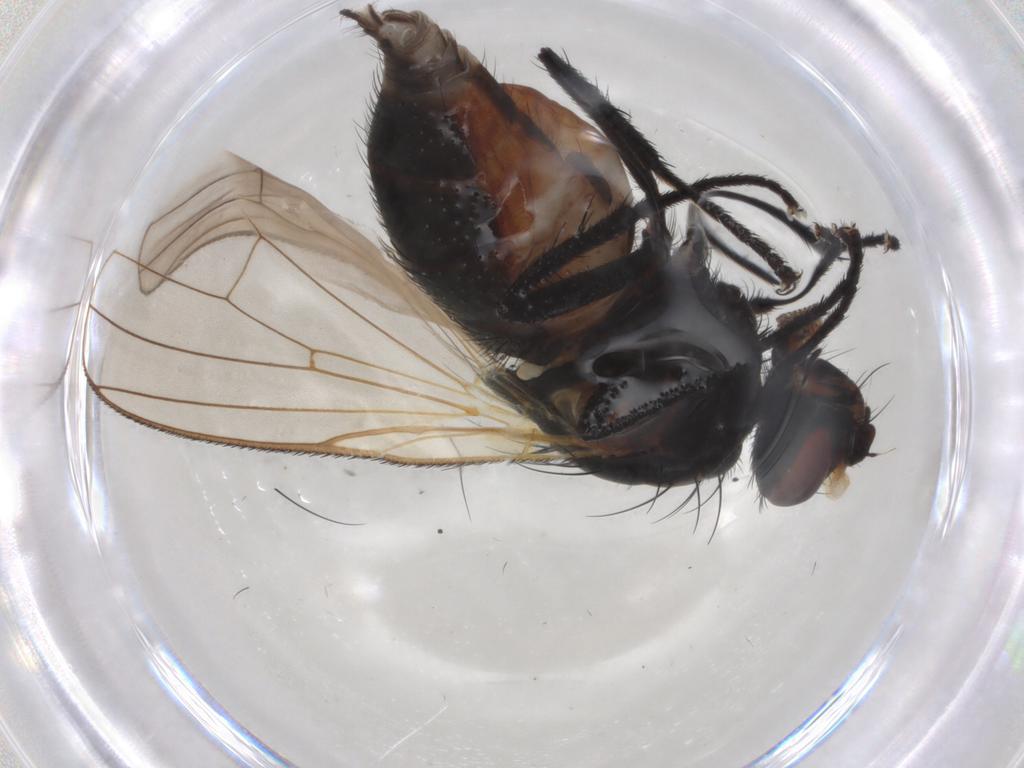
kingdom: Animalia
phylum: Arthropoda
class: Insecta
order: Diptera
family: Anthomyiidae
